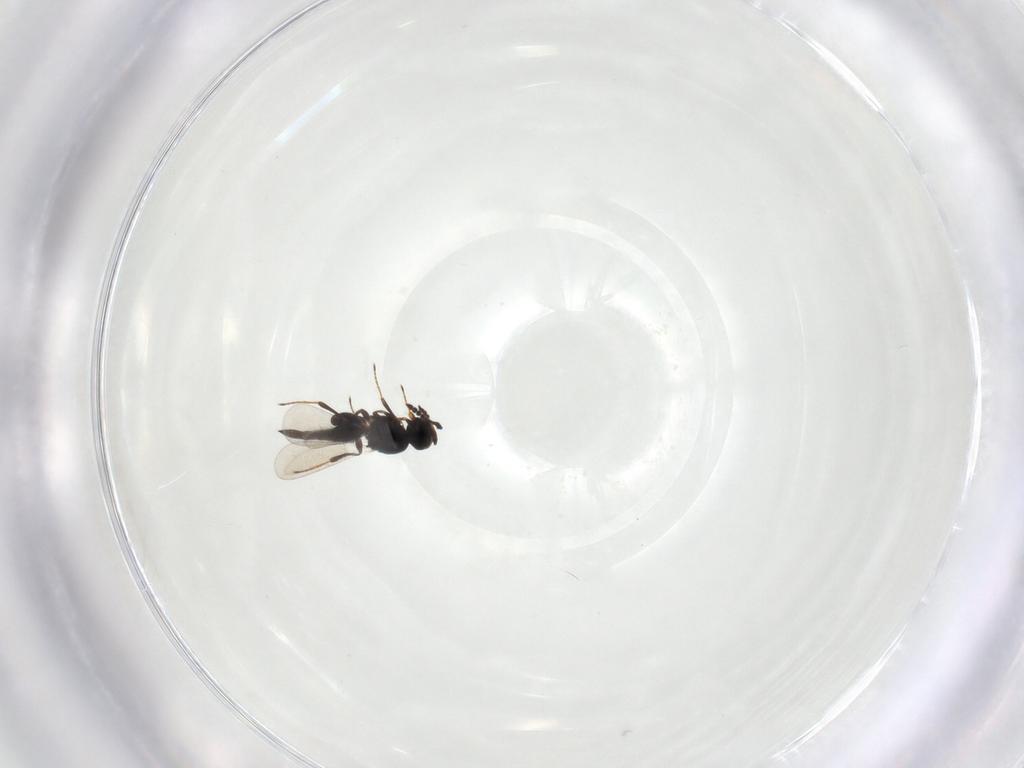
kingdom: Animalia
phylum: Arthropoda
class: Insecta
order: Hymenoptera
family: Platygastridae
